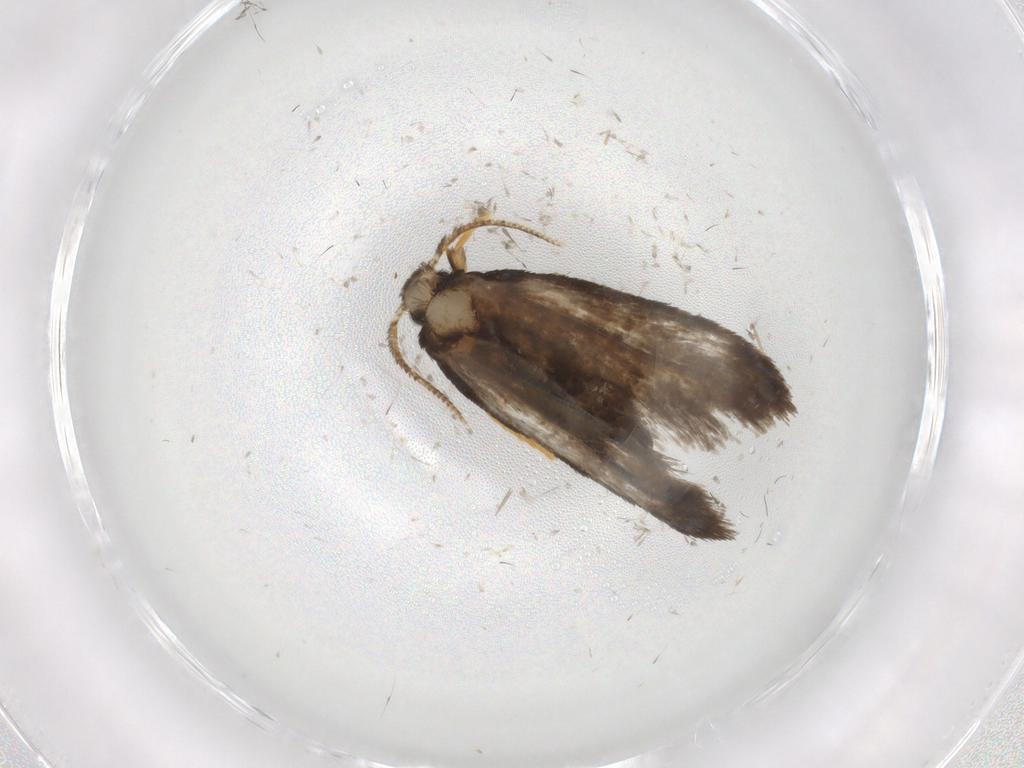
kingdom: Animalia
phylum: Arthropoda
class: Insecta
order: Lepidoptera
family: Psychidae
